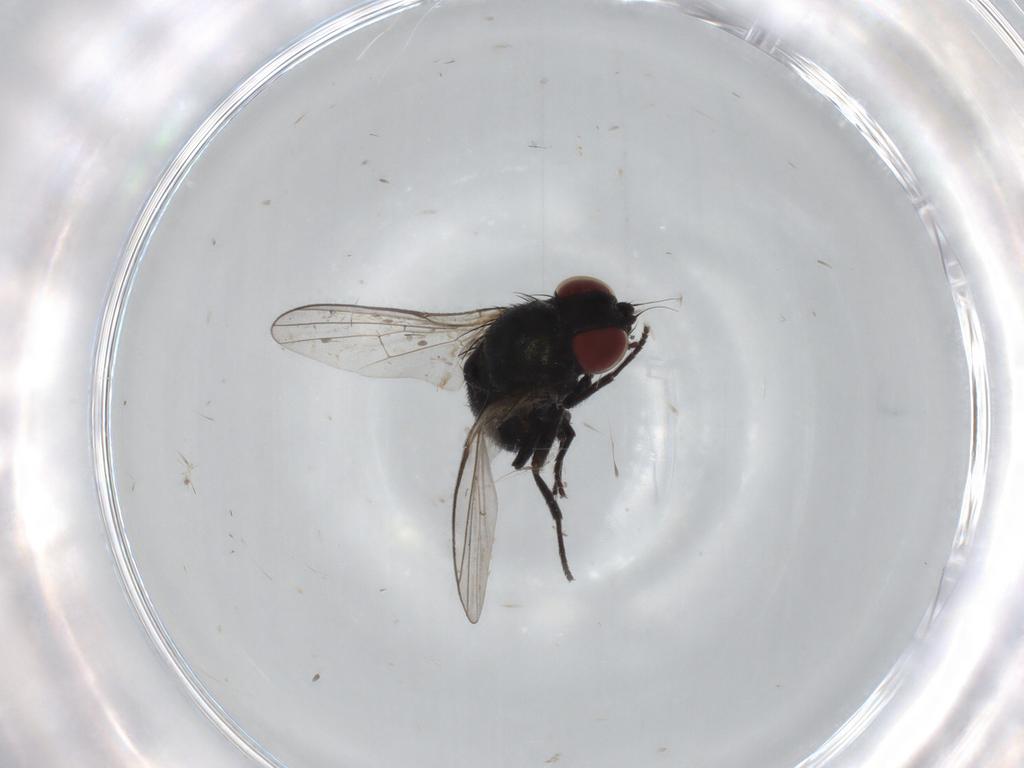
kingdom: Animalia
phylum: Arthropoda
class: Insecta
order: Diptera
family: Agromyzidae
